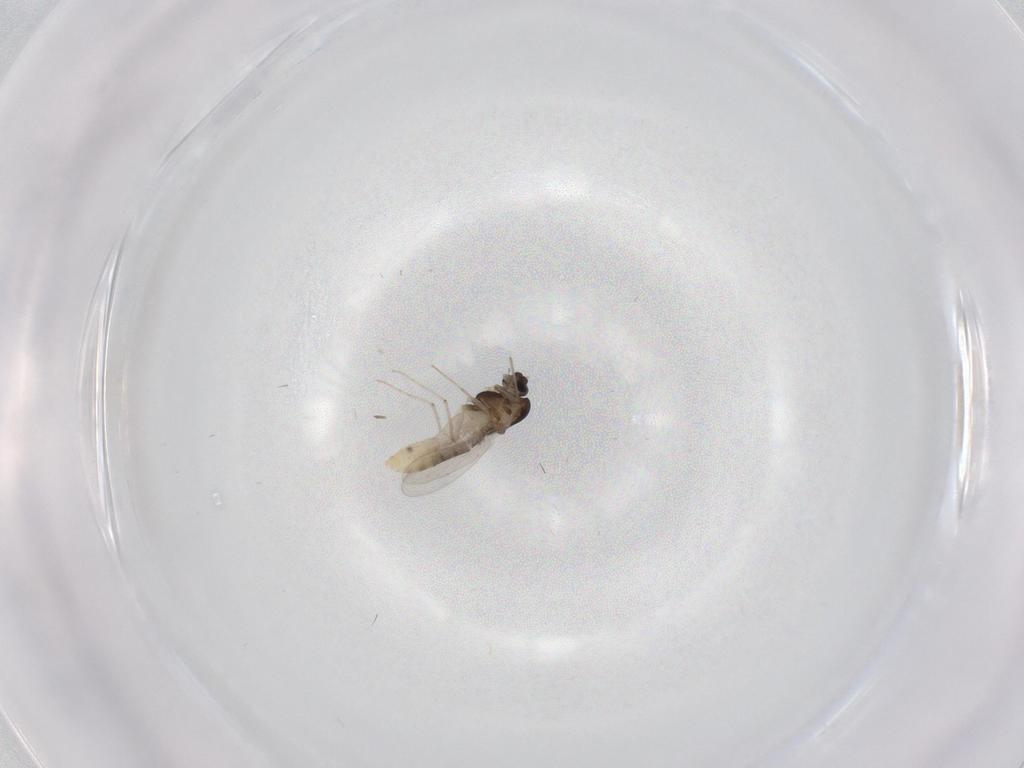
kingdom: Animalia
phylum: Arthropoda
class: Insecta
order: Diptera
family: Chironomidae
